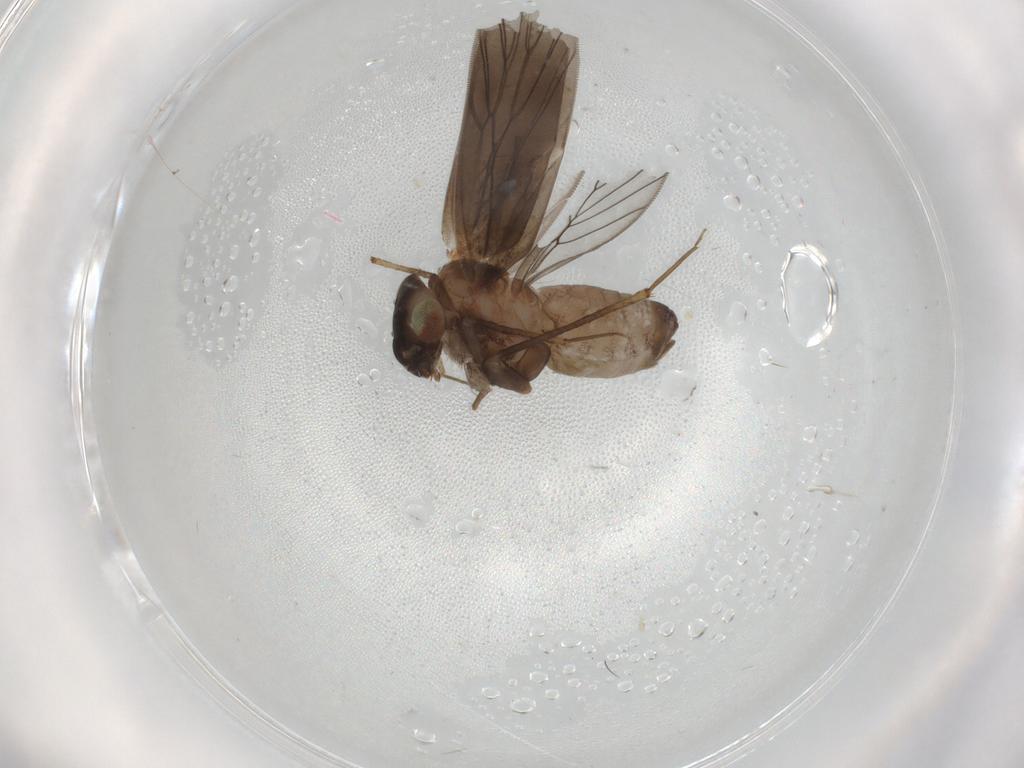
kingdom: Animalia
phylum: Arthropoda
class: Insecta
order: Psocodea
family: Lepidopsocidae
